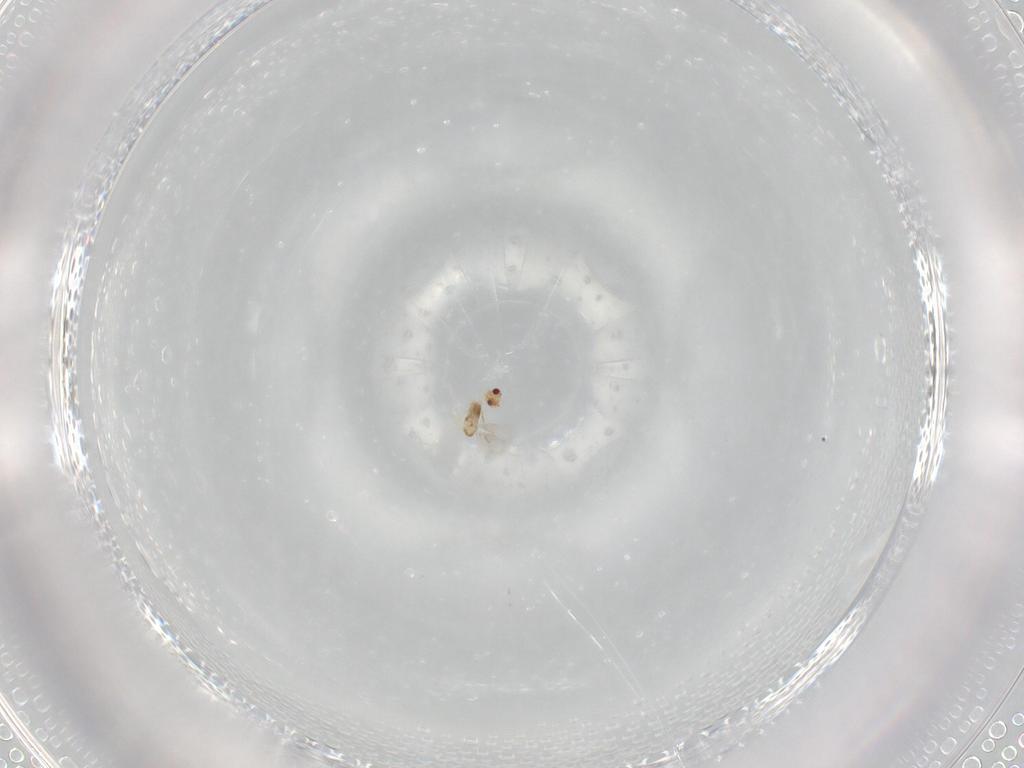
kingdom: Animalia
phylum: Arthropoda
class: Insecta
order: Hymenoptera
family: Aphelinidae
